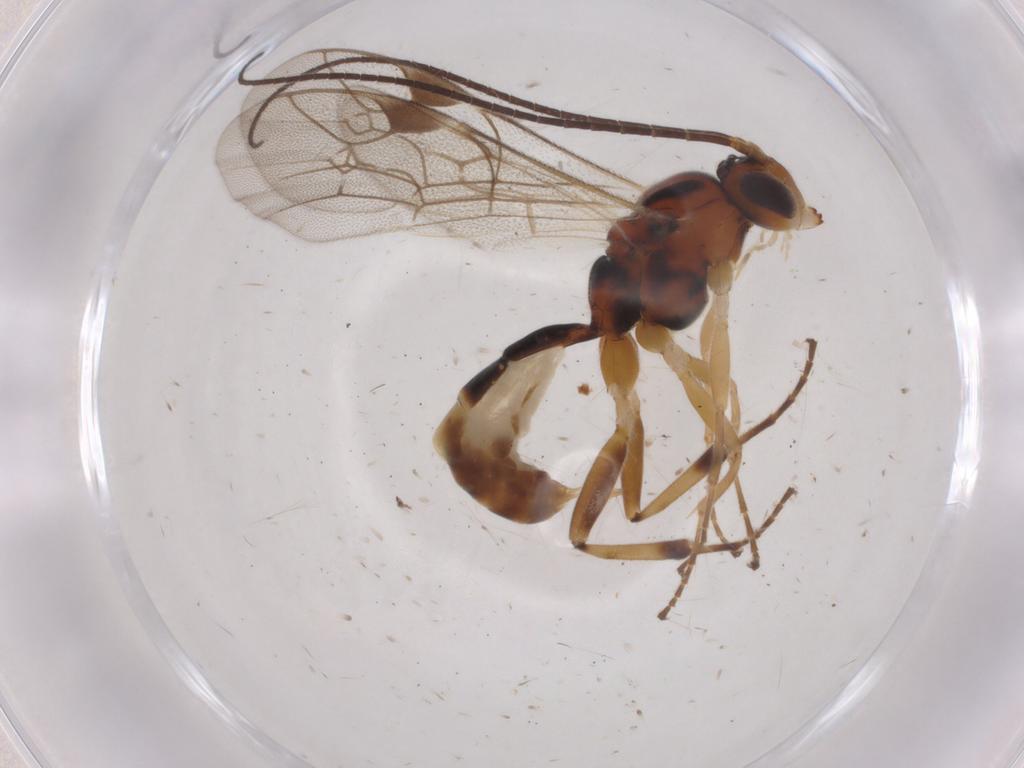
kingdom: Animalia
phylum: Arthropoda
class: Insecta
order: Hymenoptera
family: Ichneumonidae
